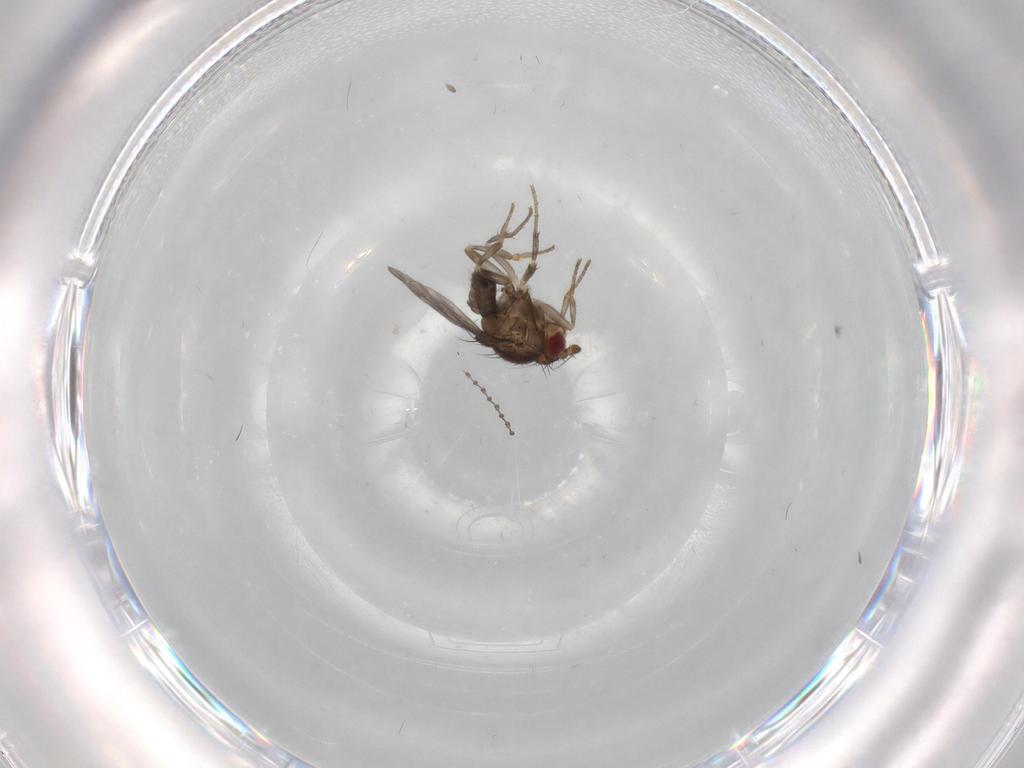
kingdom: Animalia
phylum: Arthropoda
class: Insecta
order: Diptera
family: Sphaeroceridae
